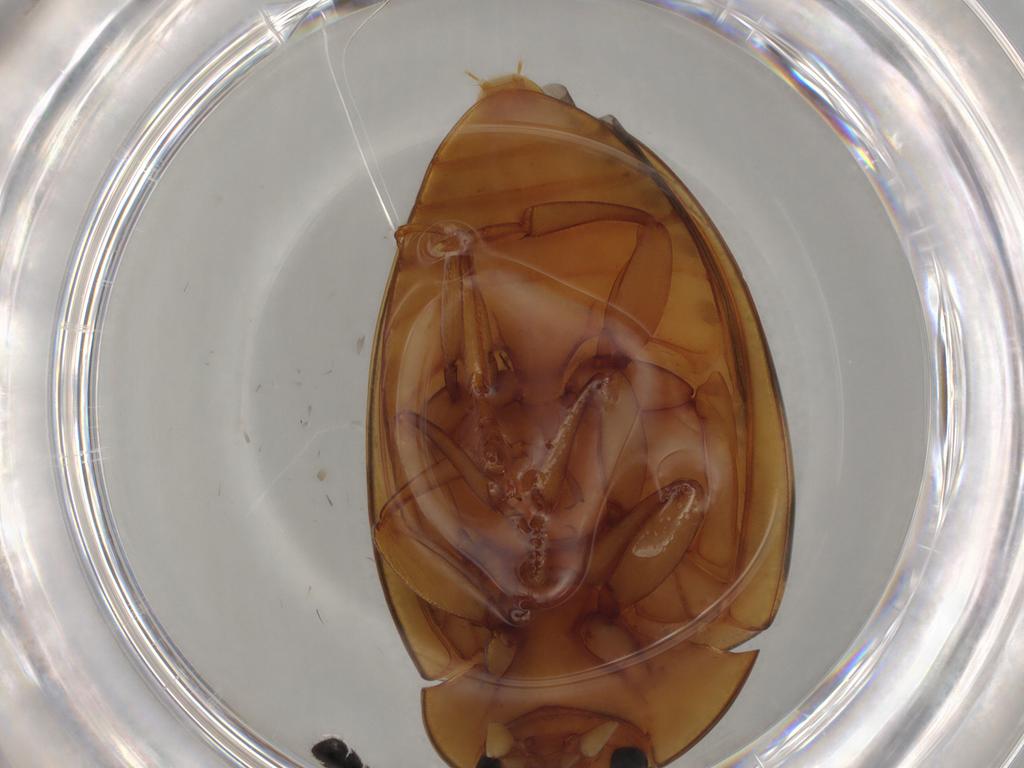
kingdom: Animalia
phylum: Arthropoda
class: Insecta
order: Coleoptera
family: Erotylidae
